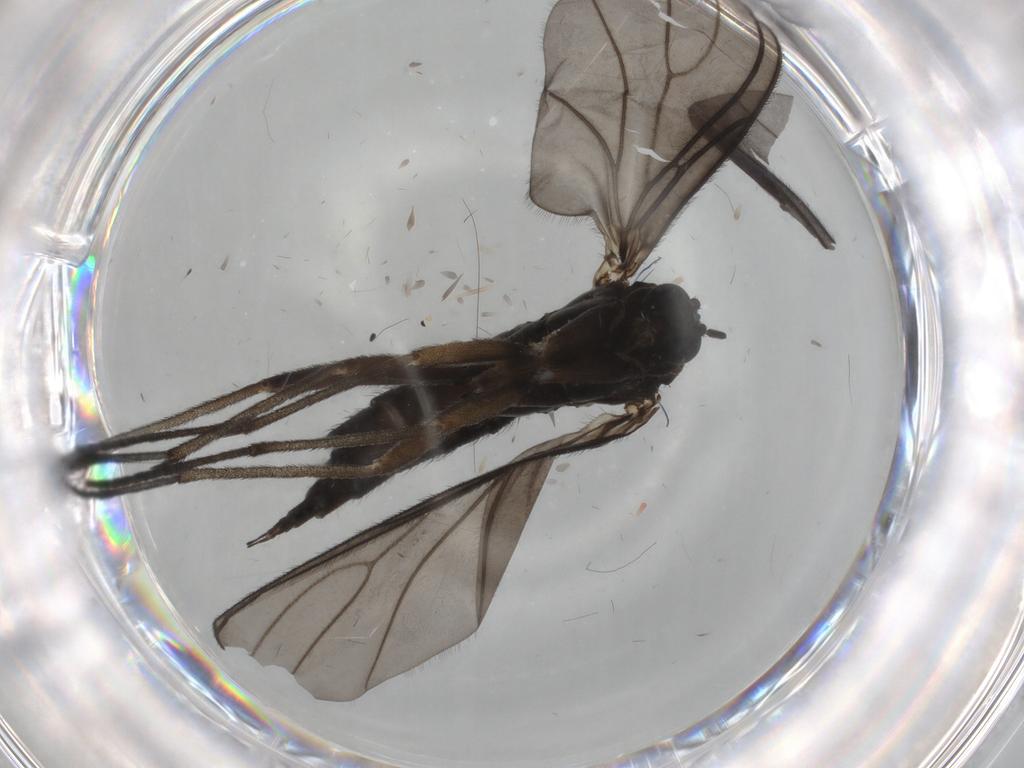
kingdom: Animalia
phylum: Arthropoda
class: Insecta
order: Diptera
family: Sciaridae
